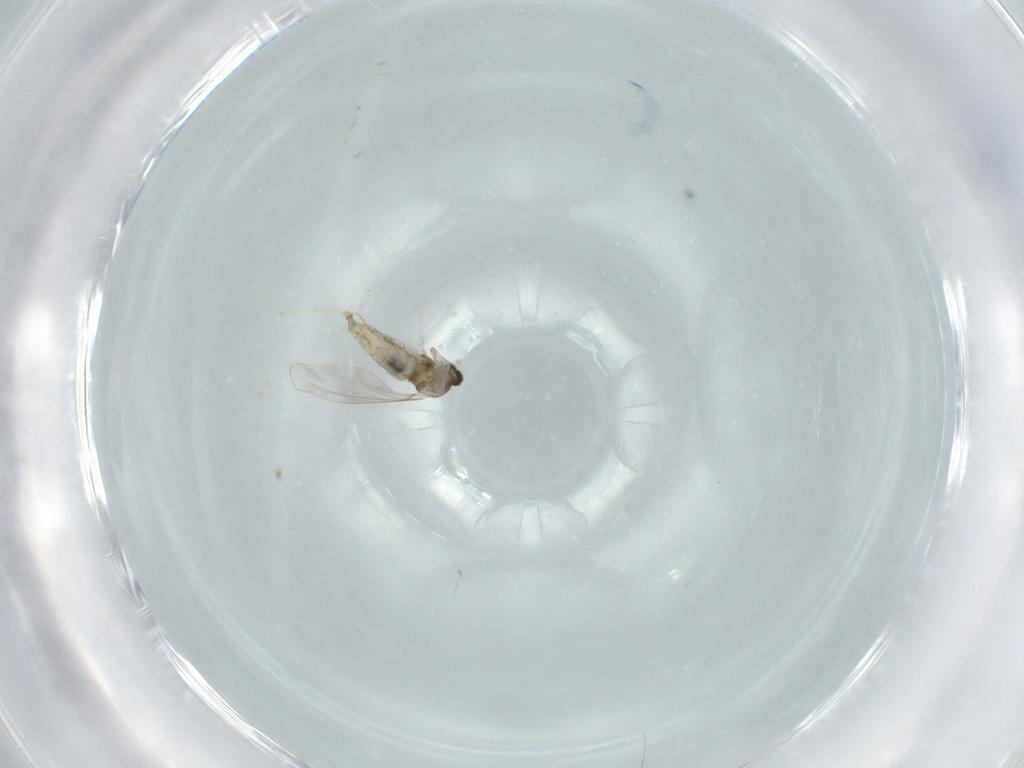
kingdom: Animalia
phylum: Arthropoda
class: Insecta
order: Diptera
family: Cecidomyiidae
